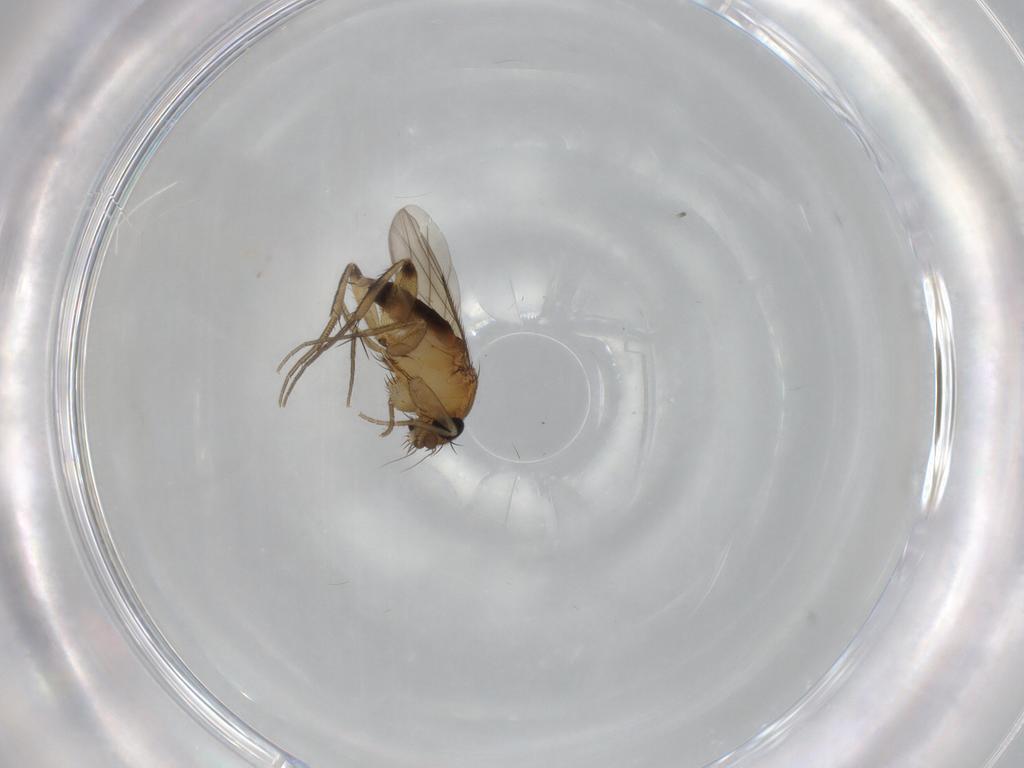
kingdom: Animalia
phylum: Arthropoda
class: Insecta
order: Diptera
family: Phoridae
